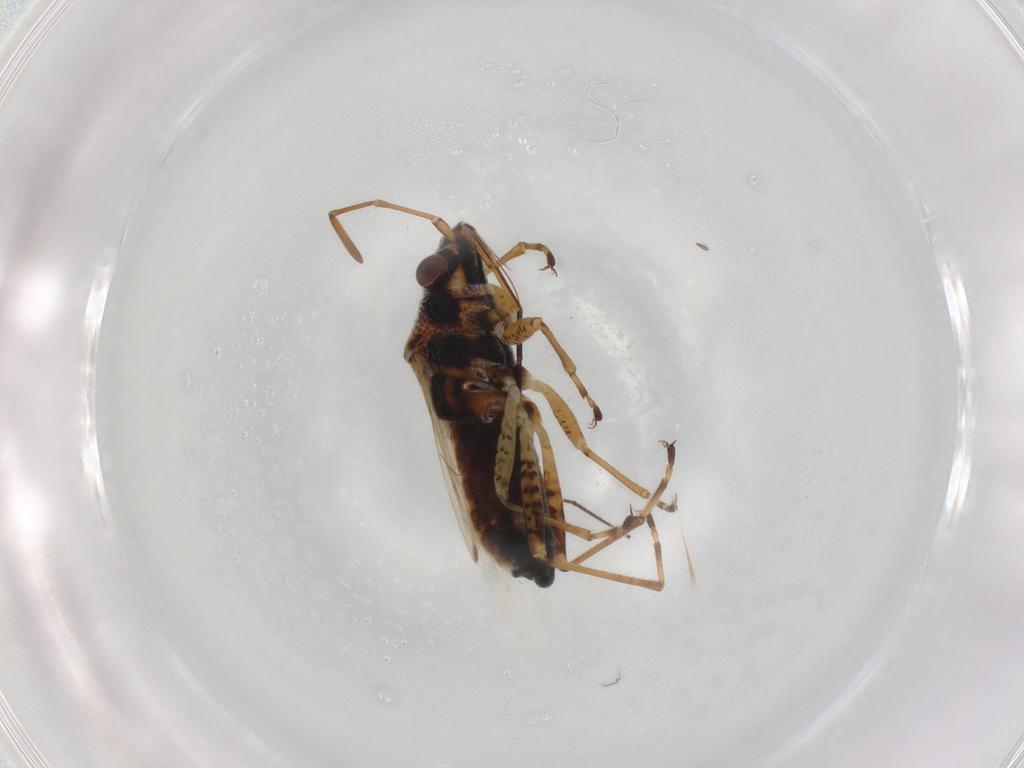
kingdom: Animalia
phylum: Arthropoda
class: Insecta
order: Hemiptera
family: Lygaeidae
